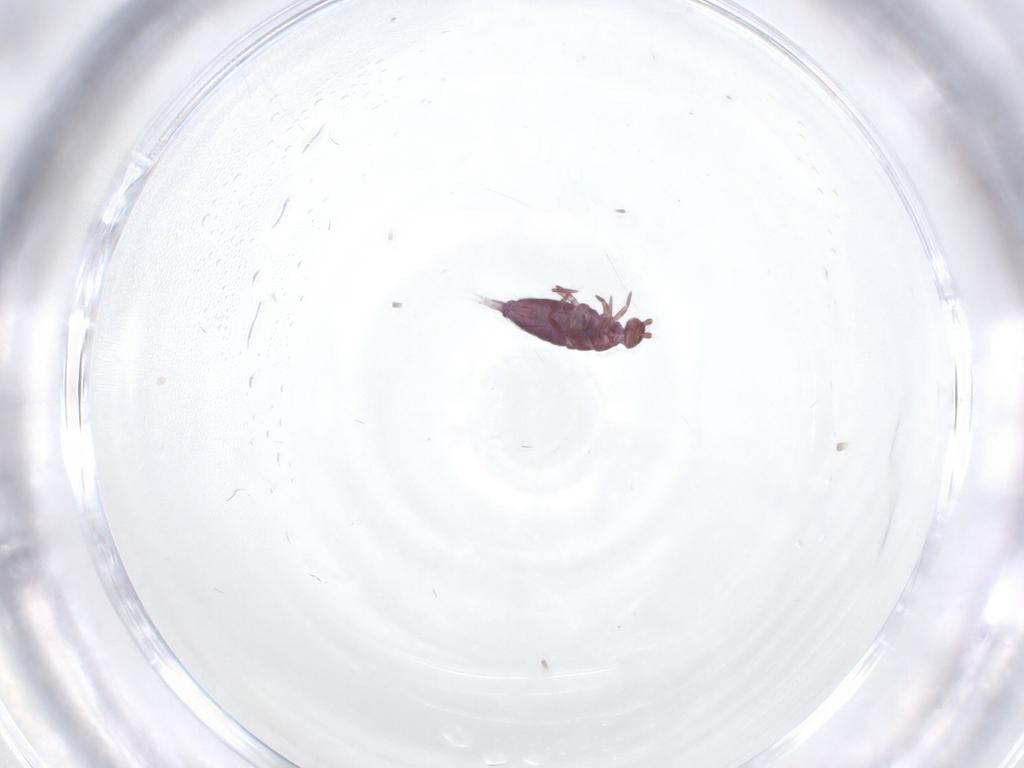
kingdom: Animalia
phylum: Arthropoda
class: Collembola
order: Entomobryomorpha
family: Entomobryidae
